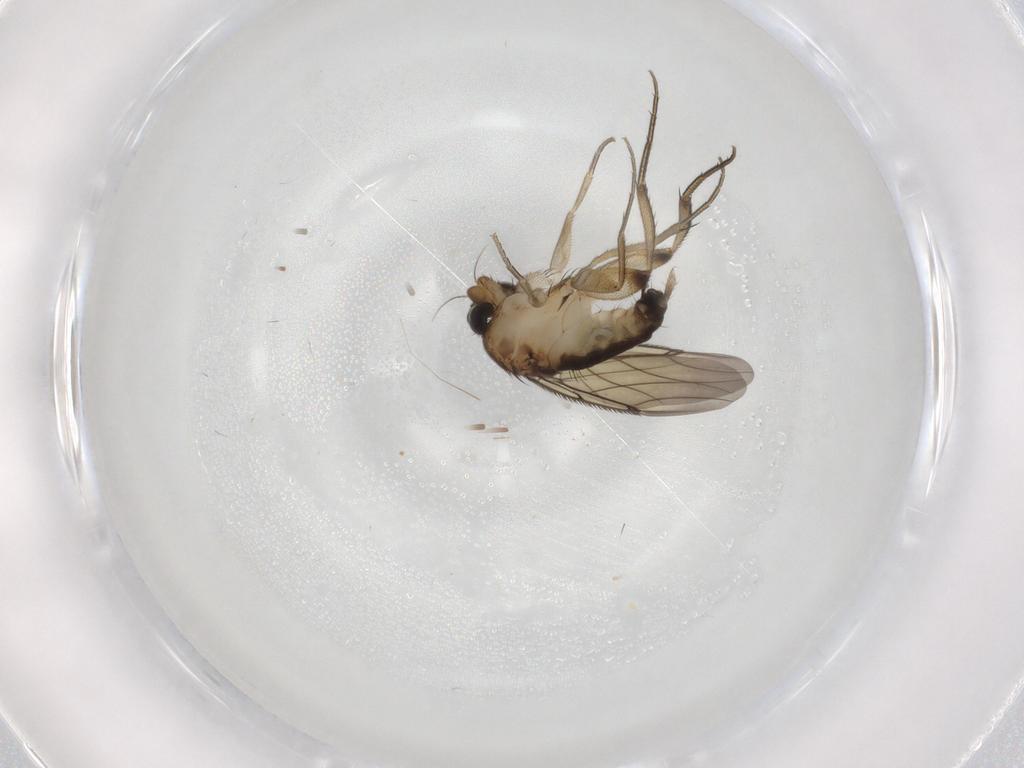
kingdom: Animalia
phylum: Arthropoda
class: Insecta
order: Diptera
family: Phoridae
